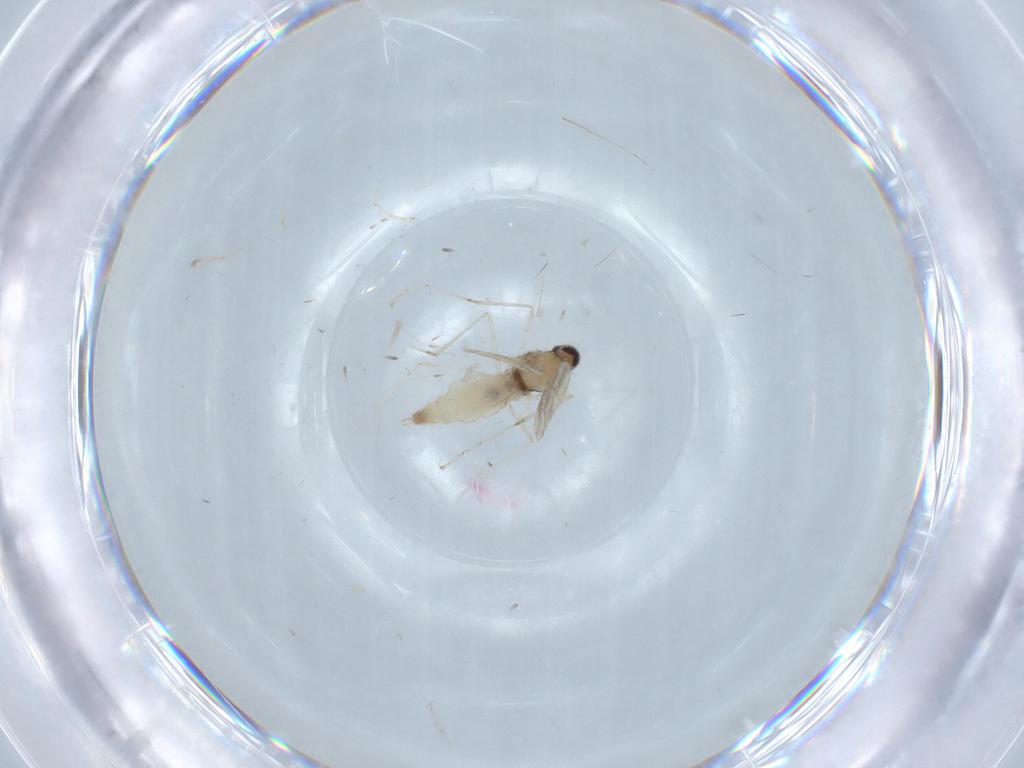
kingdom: Animalia
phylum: Arthropoda
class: Insecta
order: Diptera
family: Cecidomyiidae
